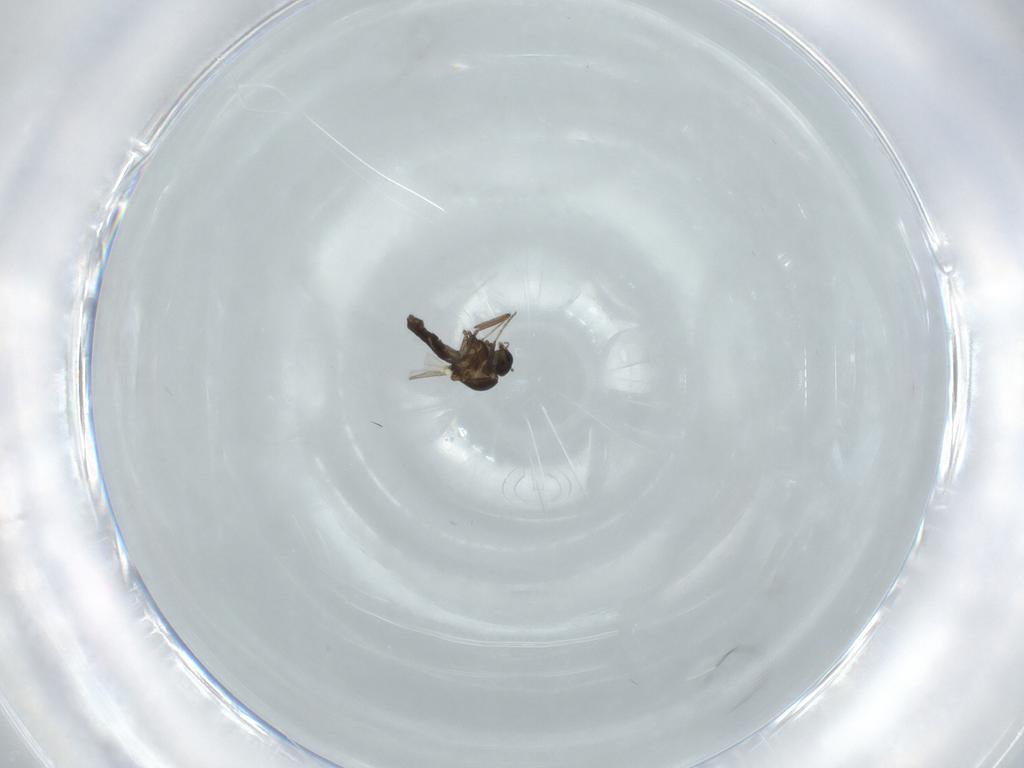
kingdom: Animalia
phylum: Arthropoda
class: Insecta
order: Diptera
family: Ceratopogonidae
